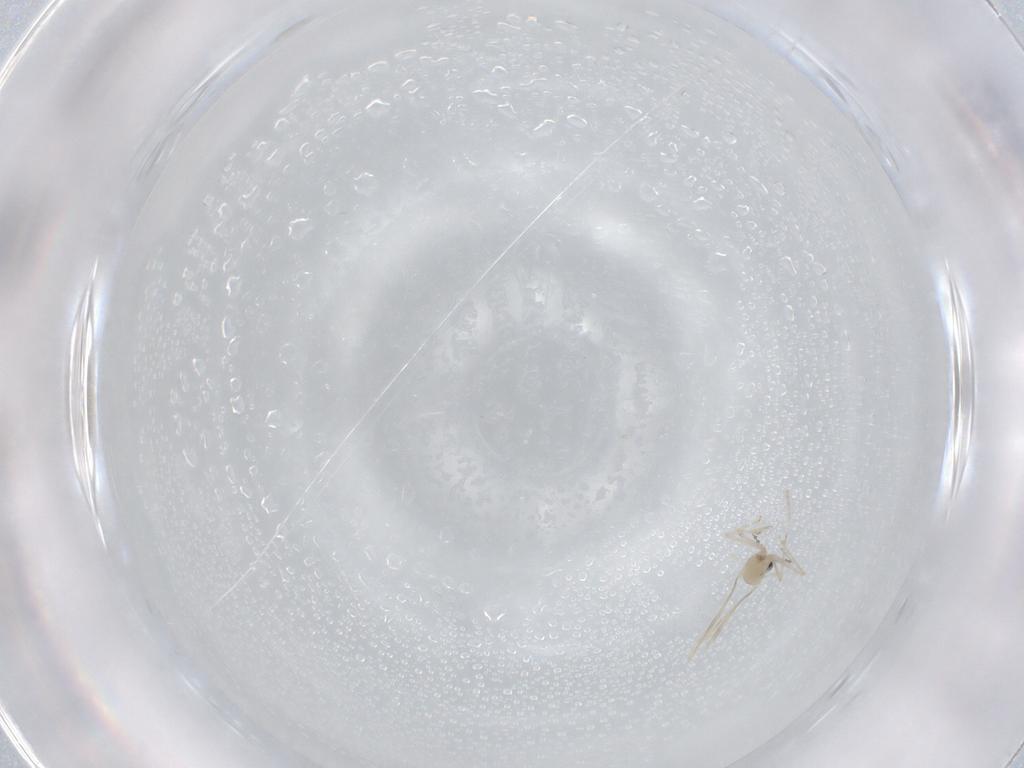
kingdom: Animalia
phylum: Arthropoda
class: Insecta
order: Diptera
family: Cecidomyiidae
